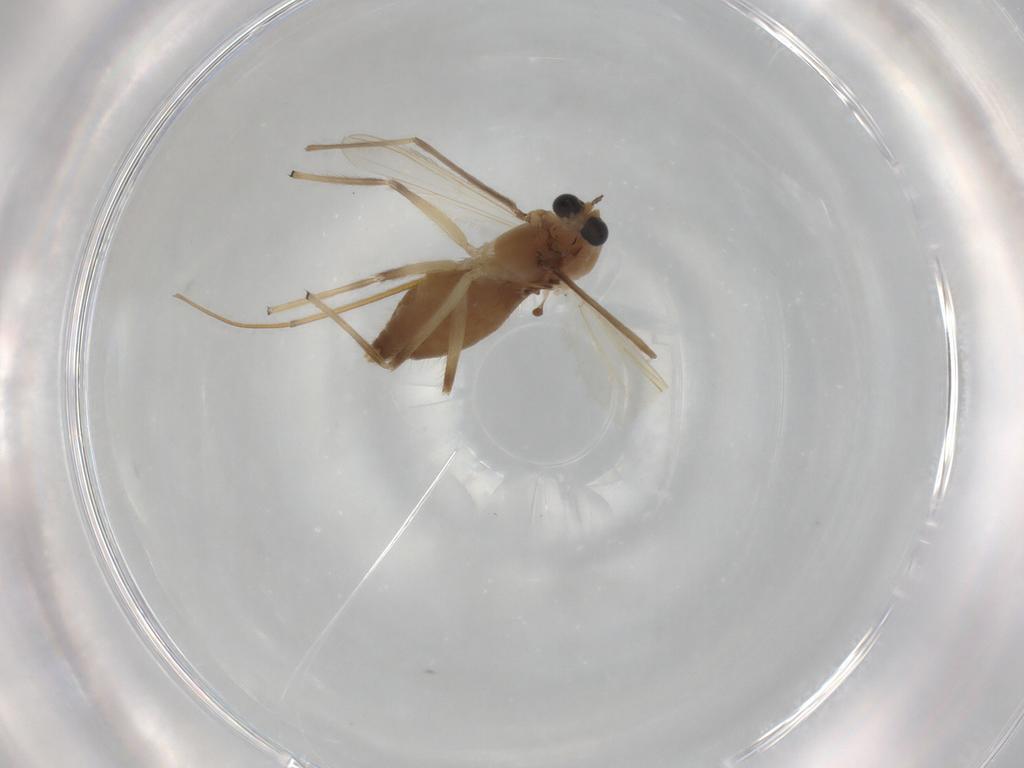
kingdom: Animalia
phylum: Arthropoda
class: Insecta
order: Diptera
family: Chironomidae
